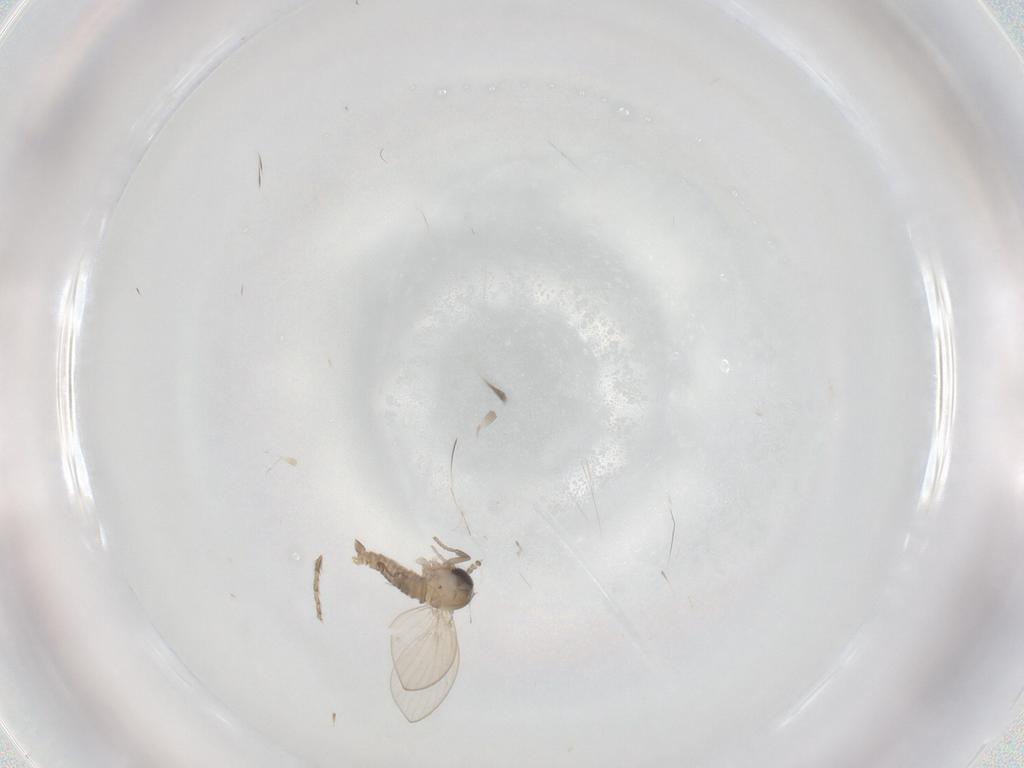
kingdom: Animalia
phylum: Arthropoda
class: Insecta
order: Diptera
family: Psychodidae
